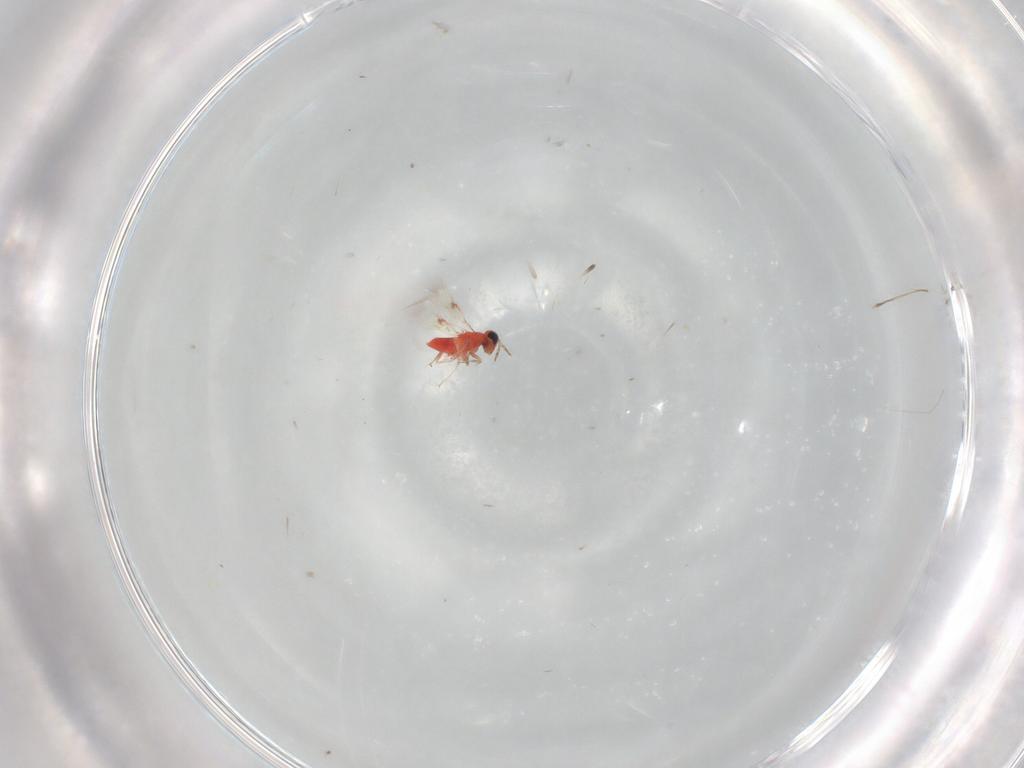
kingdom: Animalia
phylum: Arthropoda
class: Insecta
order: Hymenoptera
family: Trichogrammatidae
